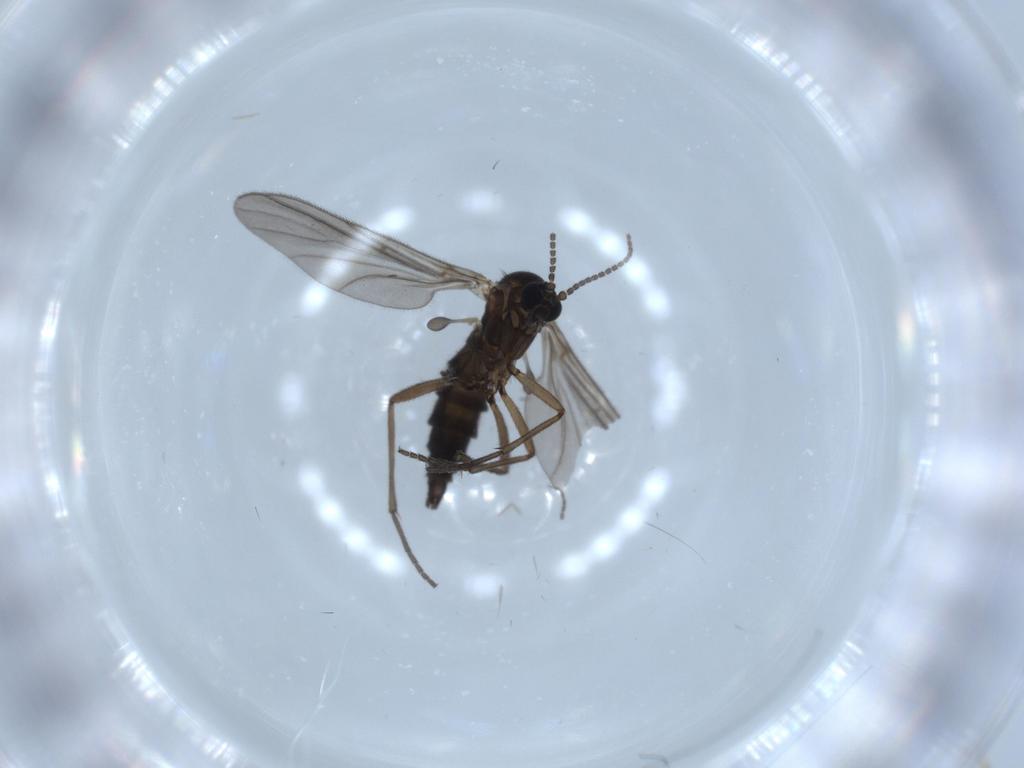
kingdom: Animalia
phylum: Arthropoda
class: Insecta
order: Diptera
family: Sciaridae
